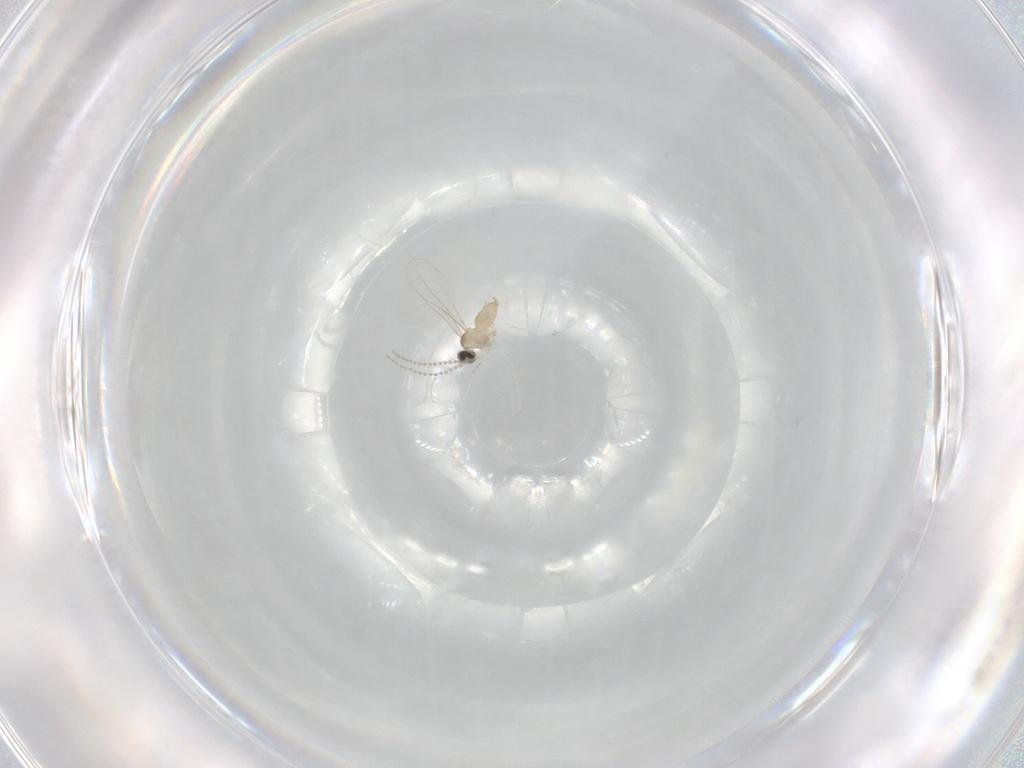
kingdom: Animalia
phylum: Arthropoda
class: Insecta
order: Diptera
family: Cecidomyiidae
